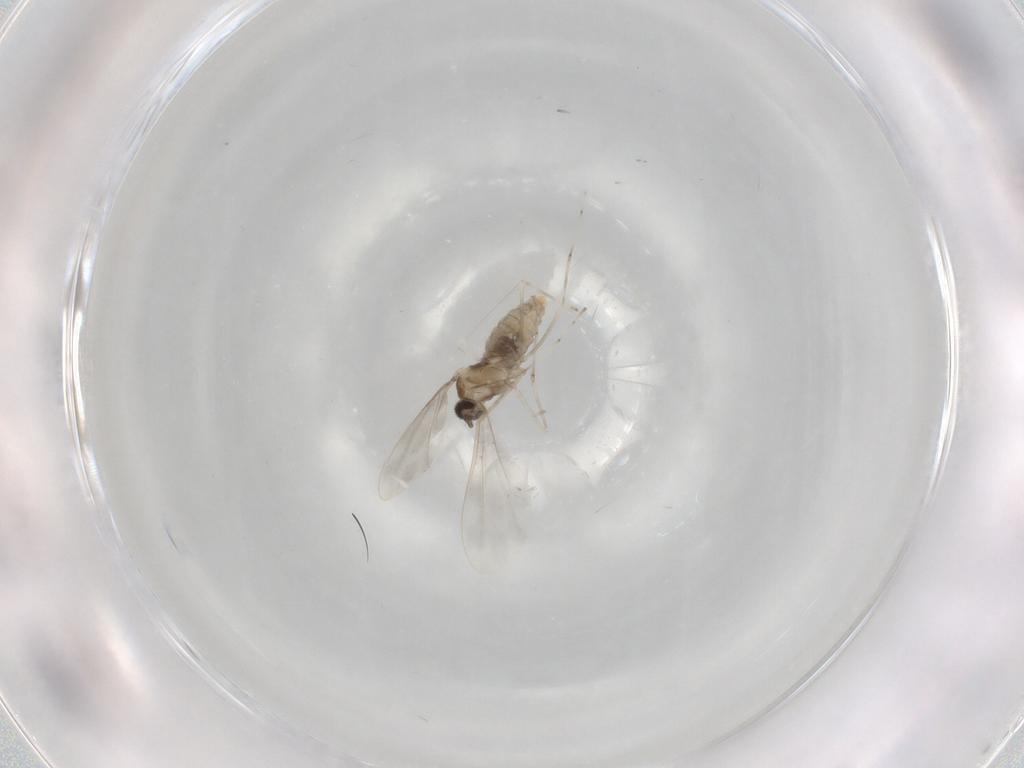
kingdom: Animalia
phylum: Arthropoda
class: Insecta
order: Diptera
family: Cecidomyiidae
